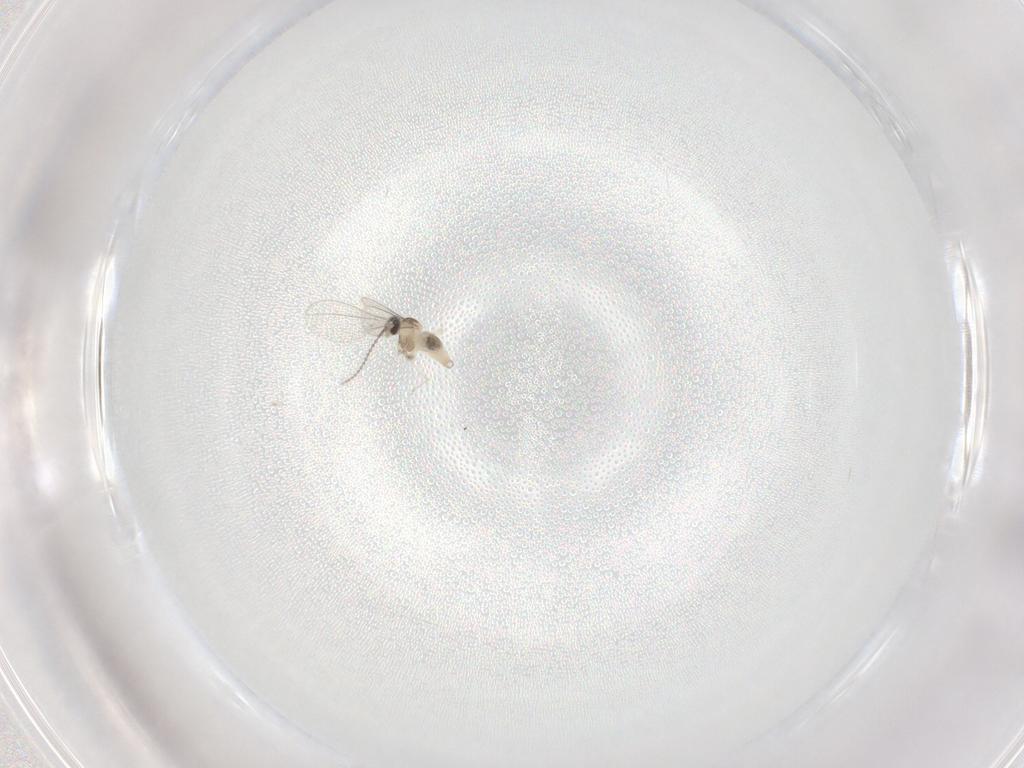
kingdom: Animalia
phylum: Arthropoda
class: Insecta
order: Diptera
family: Cecidomyiidae
